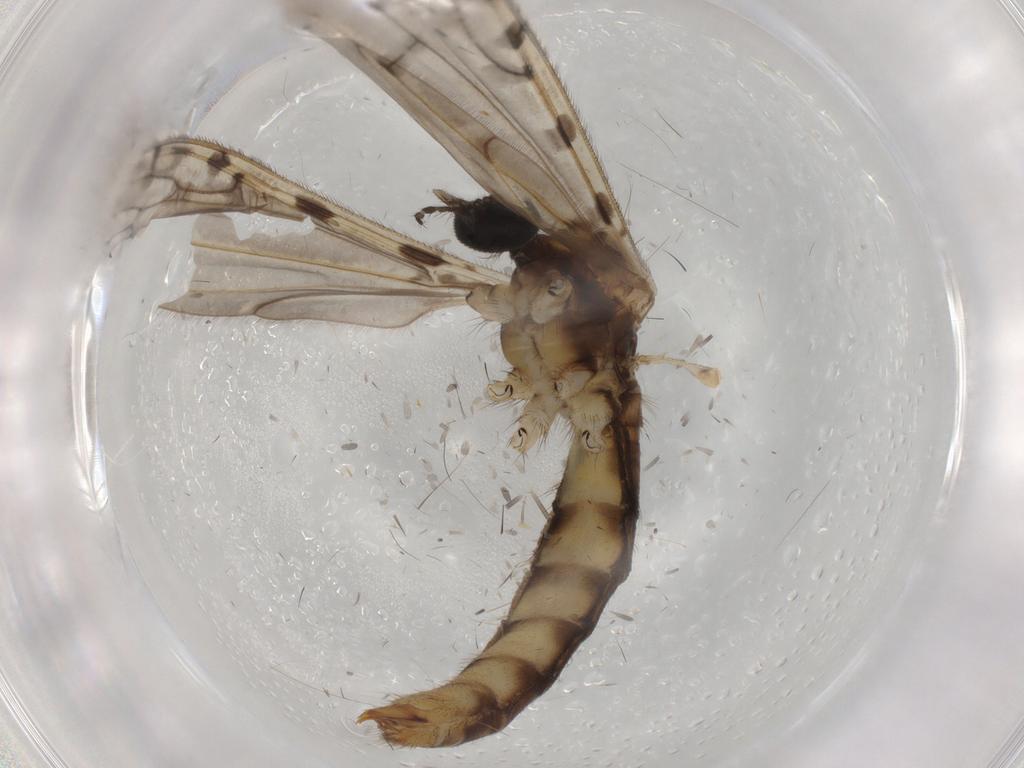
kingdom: Animalia
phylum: Arthropoda
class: Insecta
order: Diptera
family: Limoniidae
